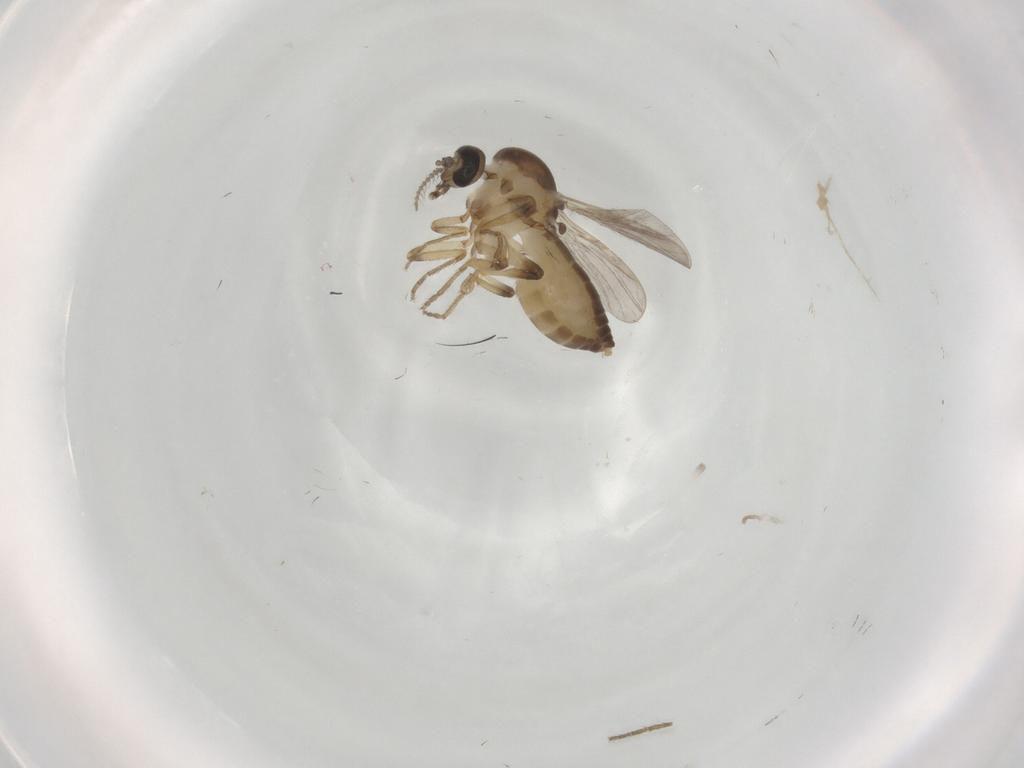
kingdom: Animalia
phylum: Arthropoda
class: Insecta
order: Diptera
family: Ceratopogonidae
